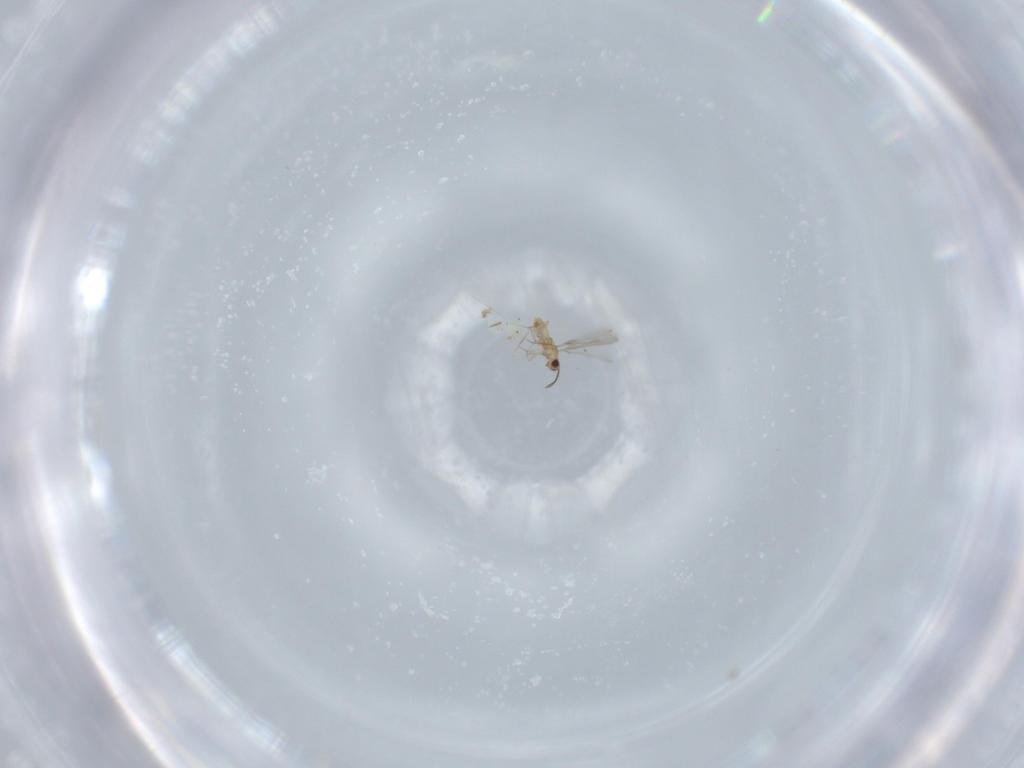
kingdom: Animalia
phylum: Arthropoda
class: Insecta
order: Hymenoptera
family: Mymaridae
